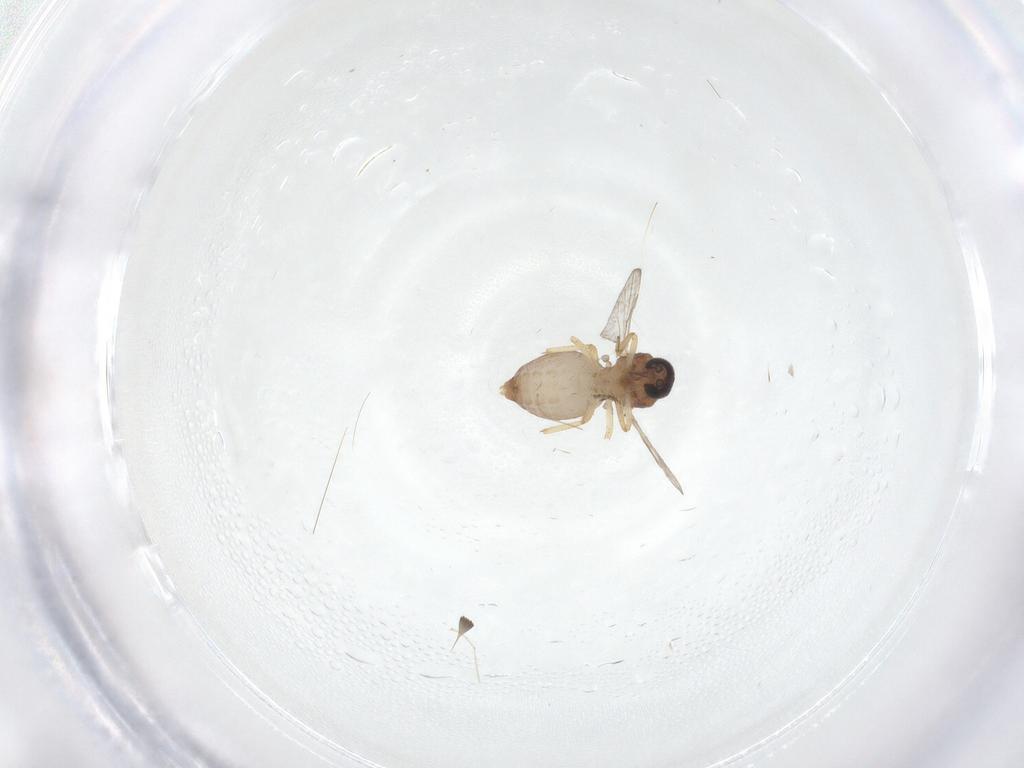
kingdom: Animalia
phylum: Arthropoda
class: Insecta
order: Diptera
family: Ceratopogonidae
